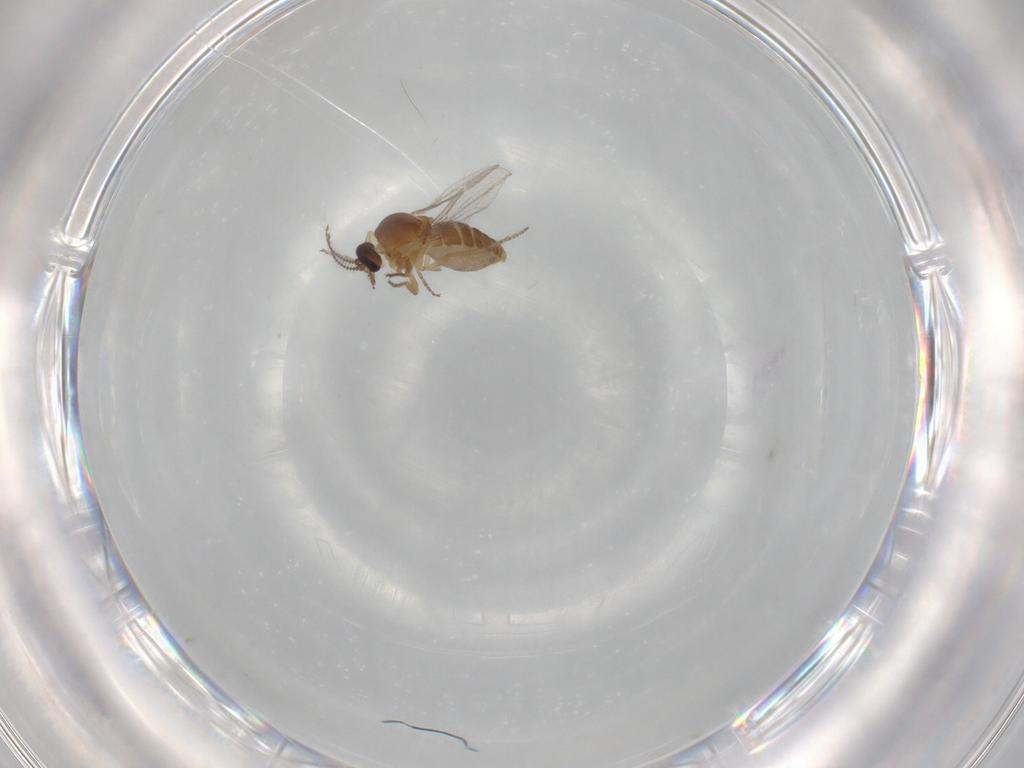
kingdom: Animalia
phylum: Arthropoda
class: Insecta
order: Diptera
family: Ceratopogonidae
